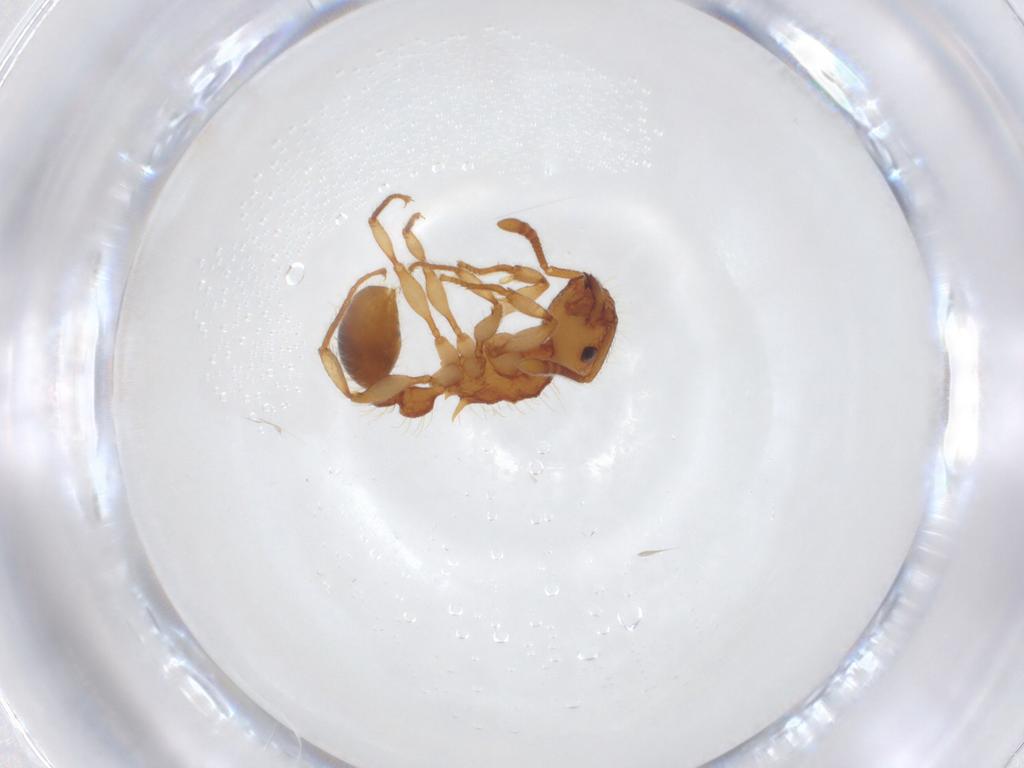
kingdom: Animalia
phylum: Arthropoda
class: Insecta
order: Hymenoptera
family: Formicidae
